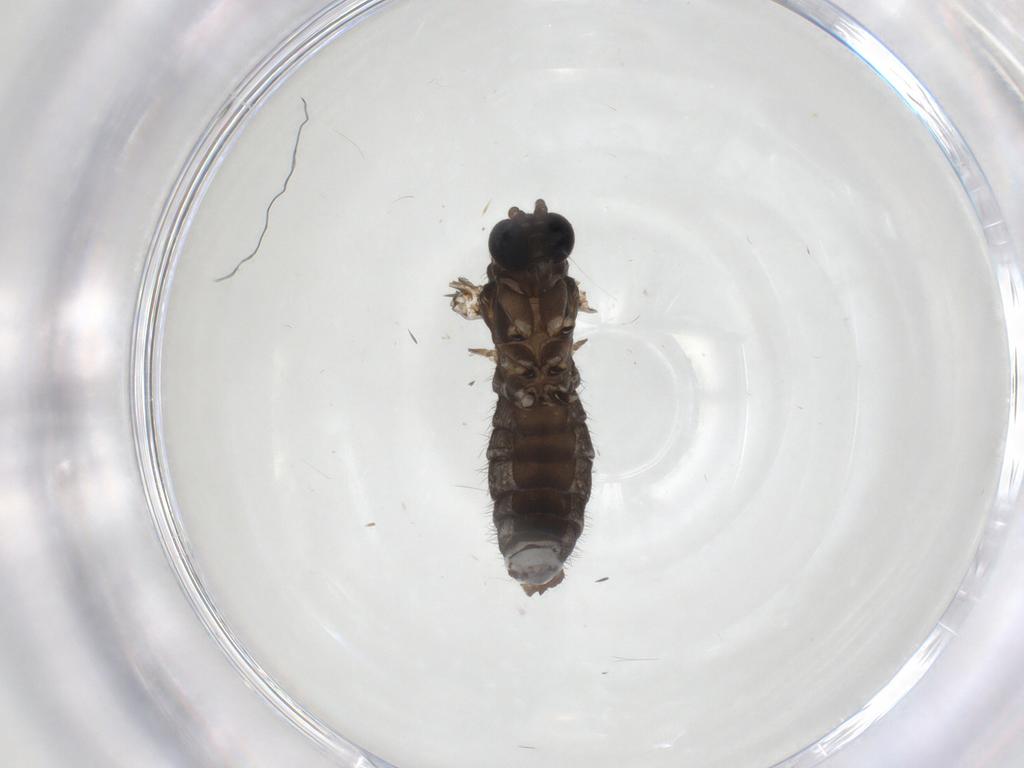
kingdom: Animalia
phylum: Arthropoda
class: Insecta
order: Diptera
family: Sciaridae
